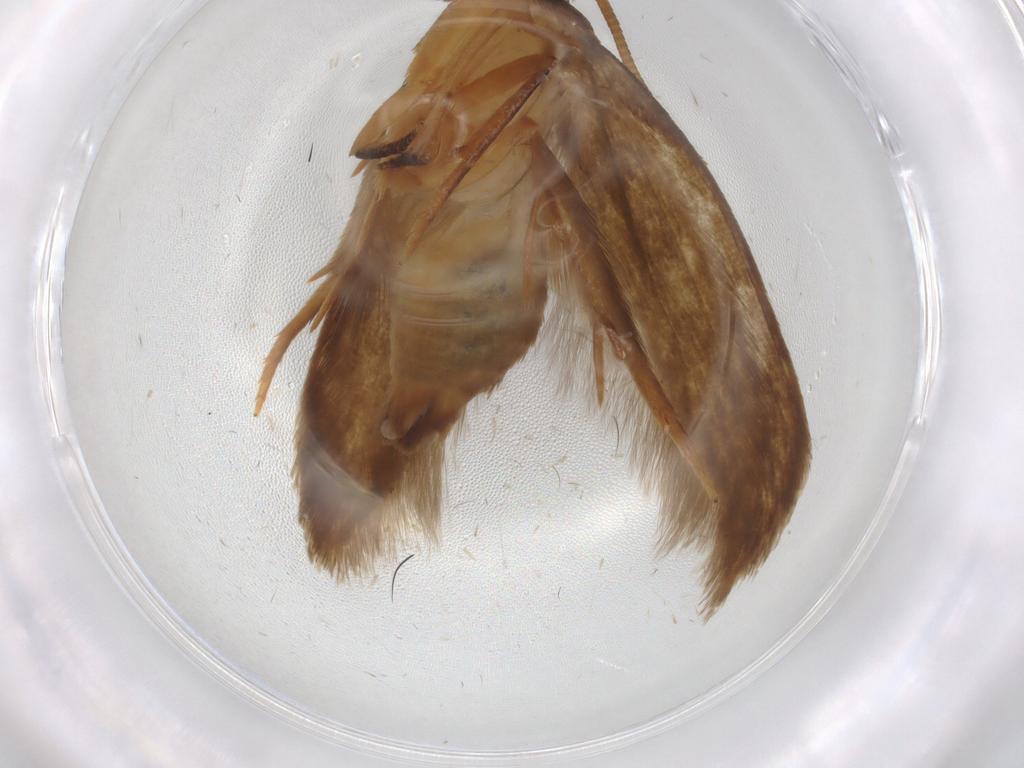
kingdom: Animalia
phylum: Arthropoda
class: Insecta
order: Lepidoptera
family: Tineidae
